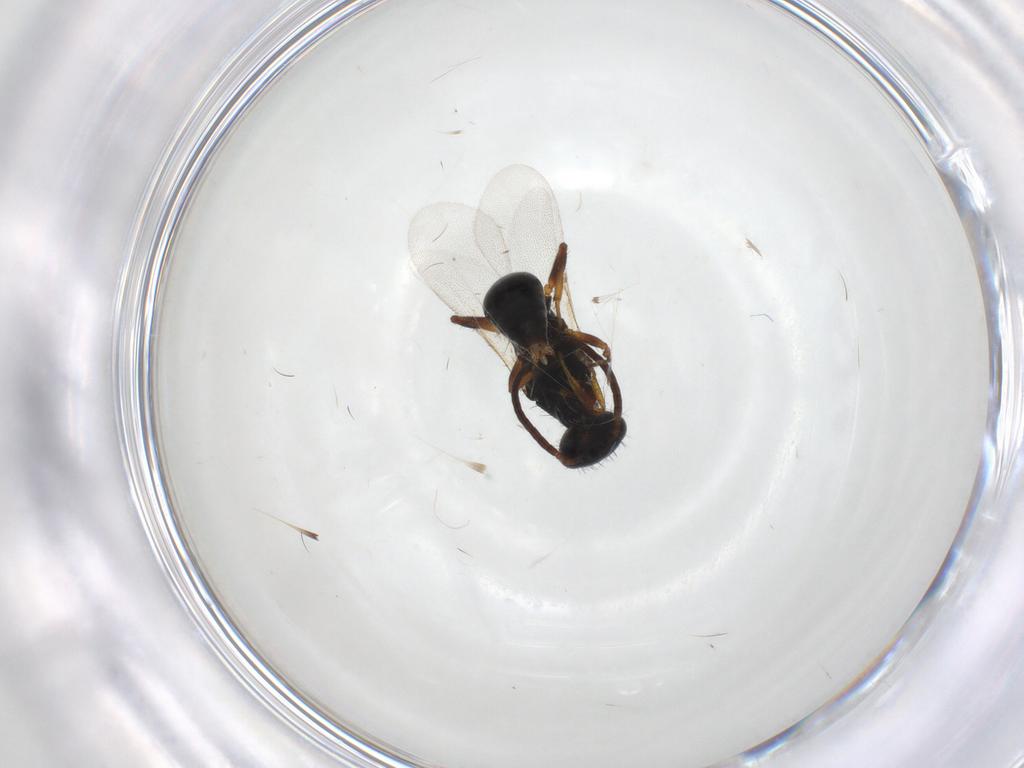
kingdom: Animalia
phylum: Arthropoda
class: Insecta
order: Hymenoptera
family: Bethylidae
